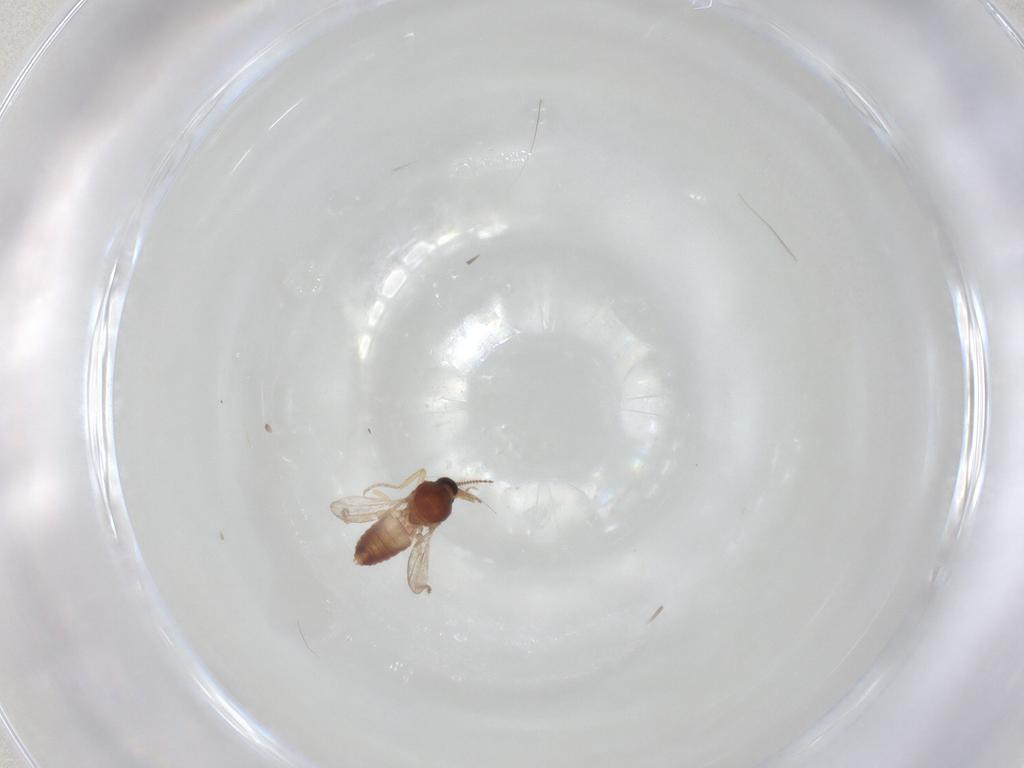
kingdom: Animalia
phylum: Arthropoda
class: Insecta
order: Diptera
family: Ceratopogonidae
